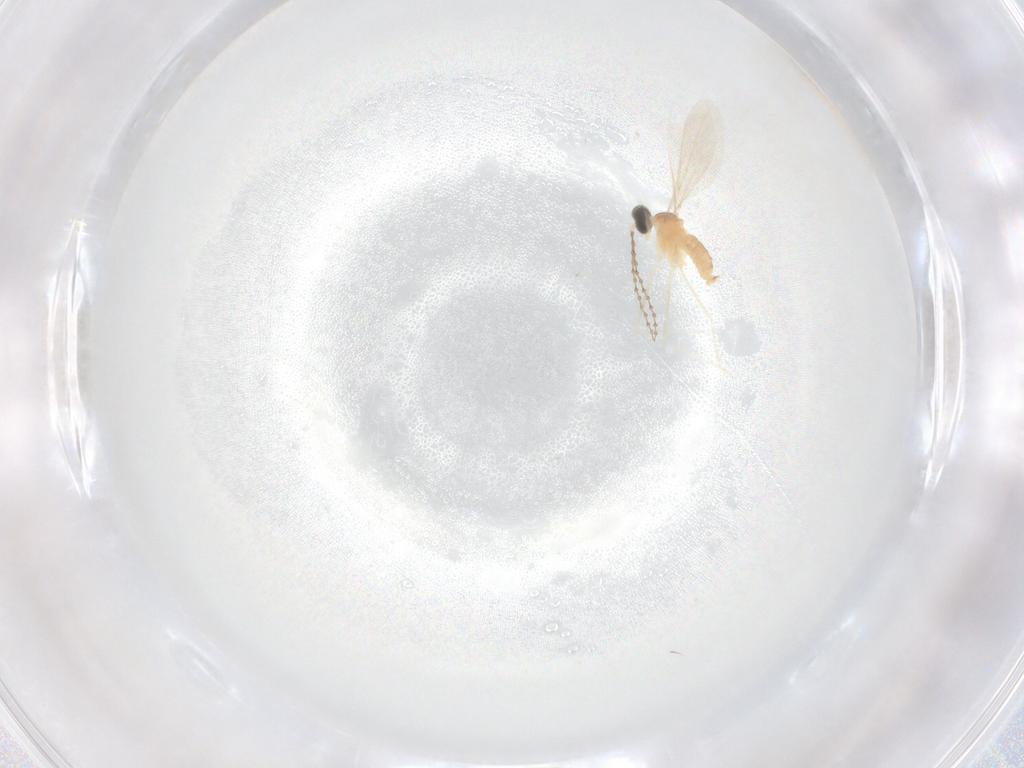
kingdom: Animalia
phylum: Arthropoda
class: Insecta
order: Diptera
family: Cecidomyiidae
